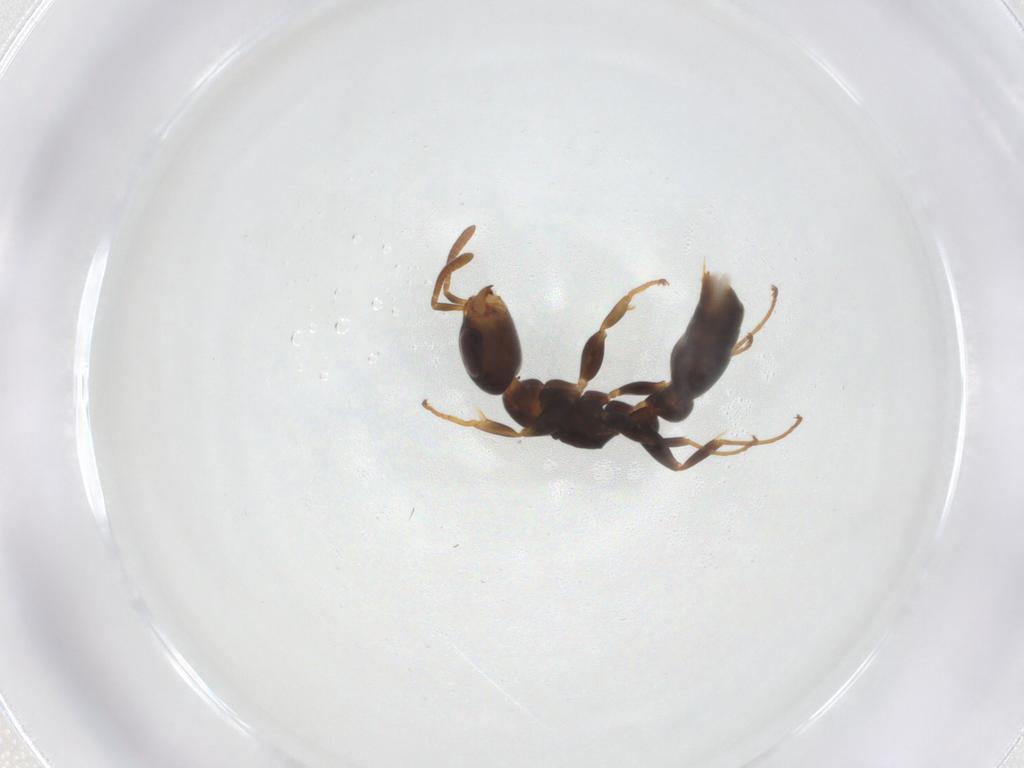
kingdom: Animalia
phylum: Arthropoda
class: Insecta
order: Hymenoptera
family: Formicidae
